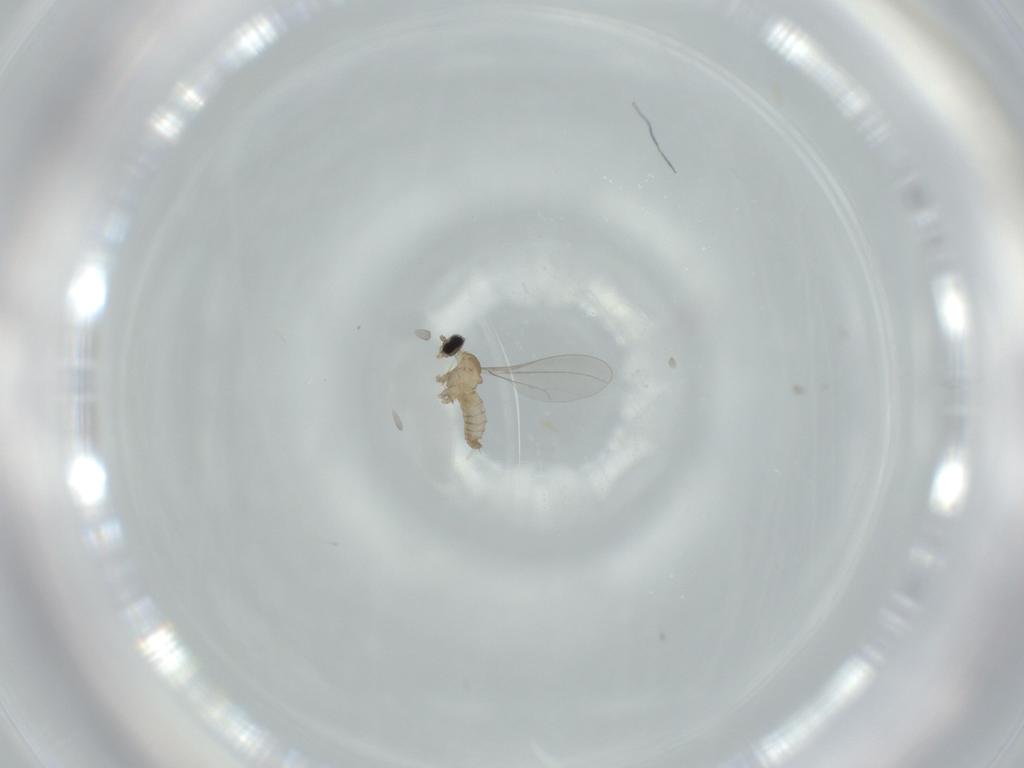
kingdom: Animalia
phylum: Arthropoda
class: Insecta
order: Diptera
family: Cecidomyiidae
